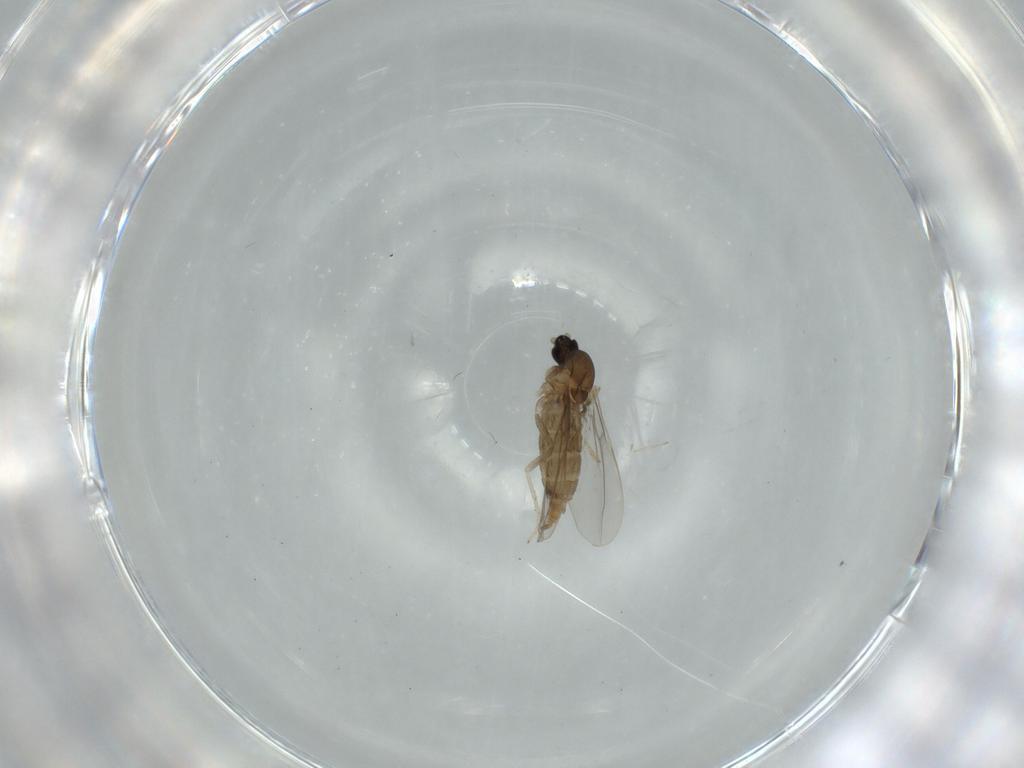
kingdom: Animalia
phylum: Arthropoda
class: Insecta
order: Diptera
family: Cecidomyiidae
